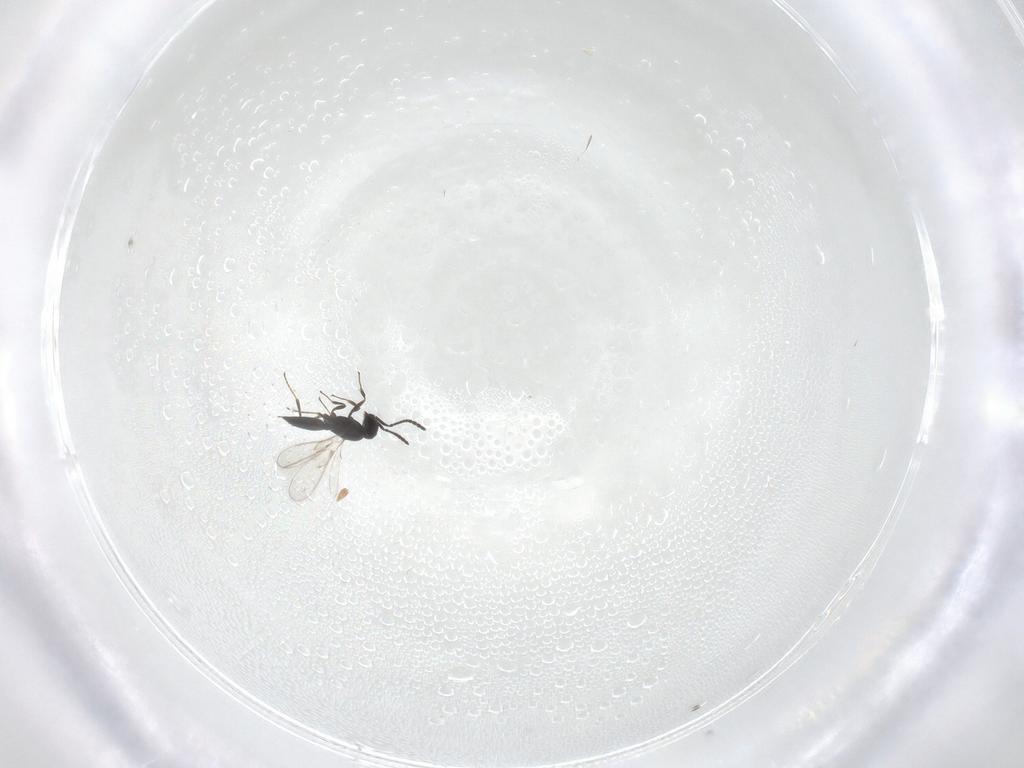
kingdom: Animalia
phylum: Arthropoda
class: Insecta
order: Hymenoptera
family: Scelionidae
